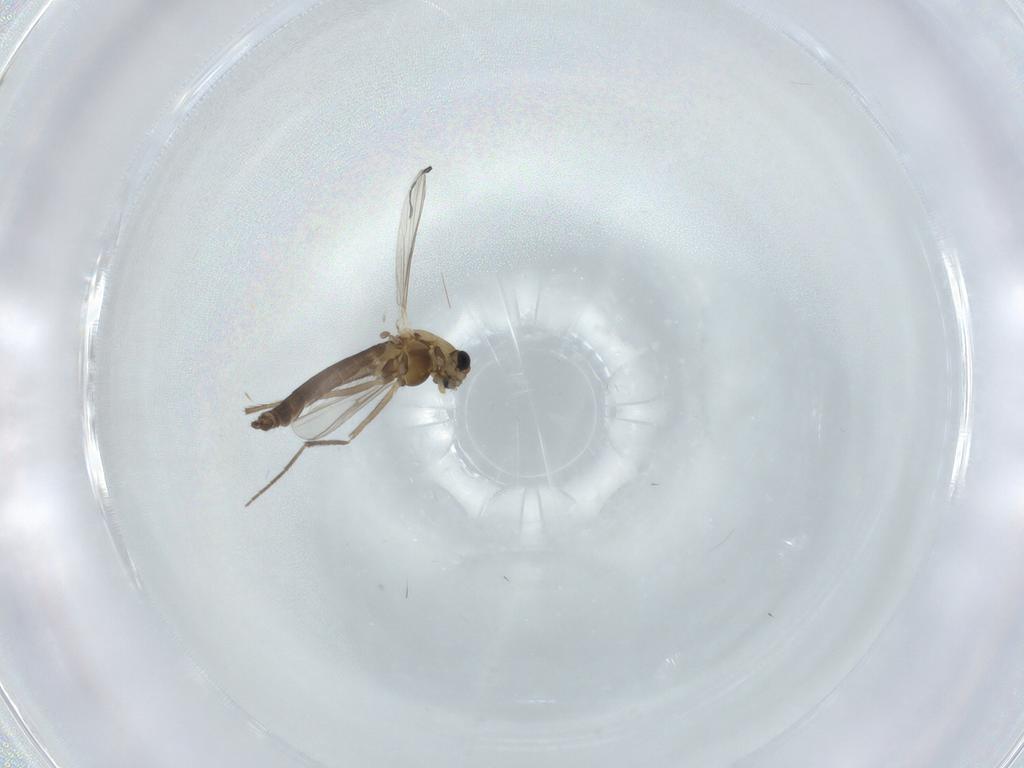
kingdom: Animalia
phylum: Arthropoda
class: Insecta
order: Diptera
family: Chironomidae
